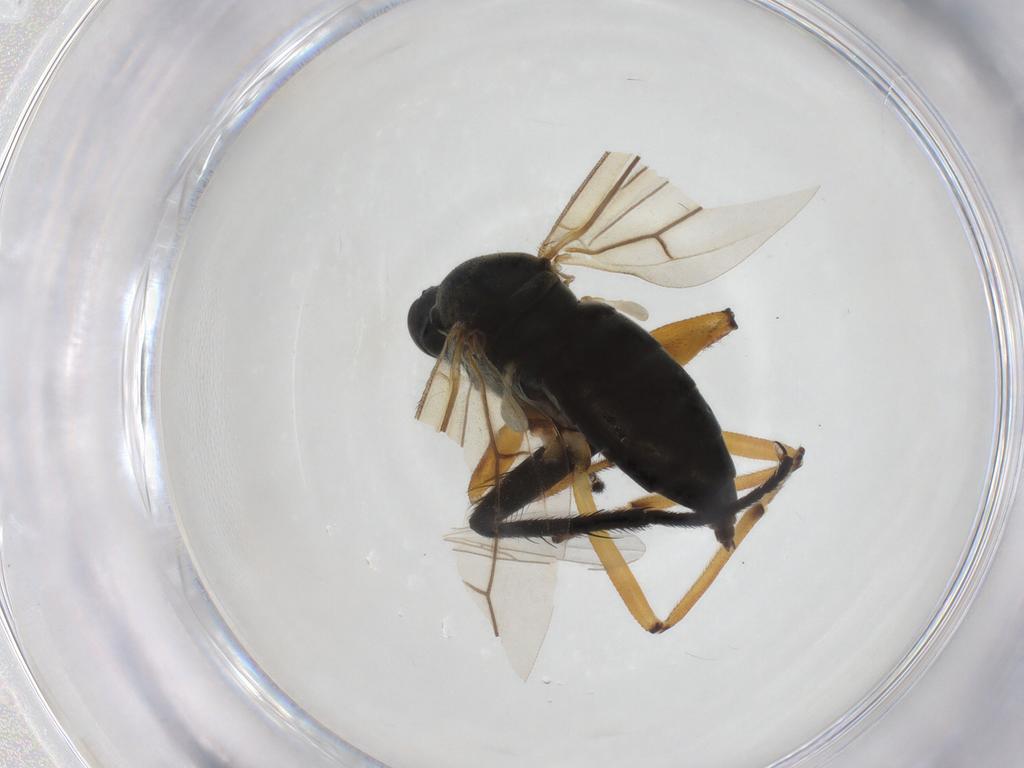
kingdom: Animalia
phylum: Arthropoda
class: Insecta
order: Diptera
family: Hybotidae
